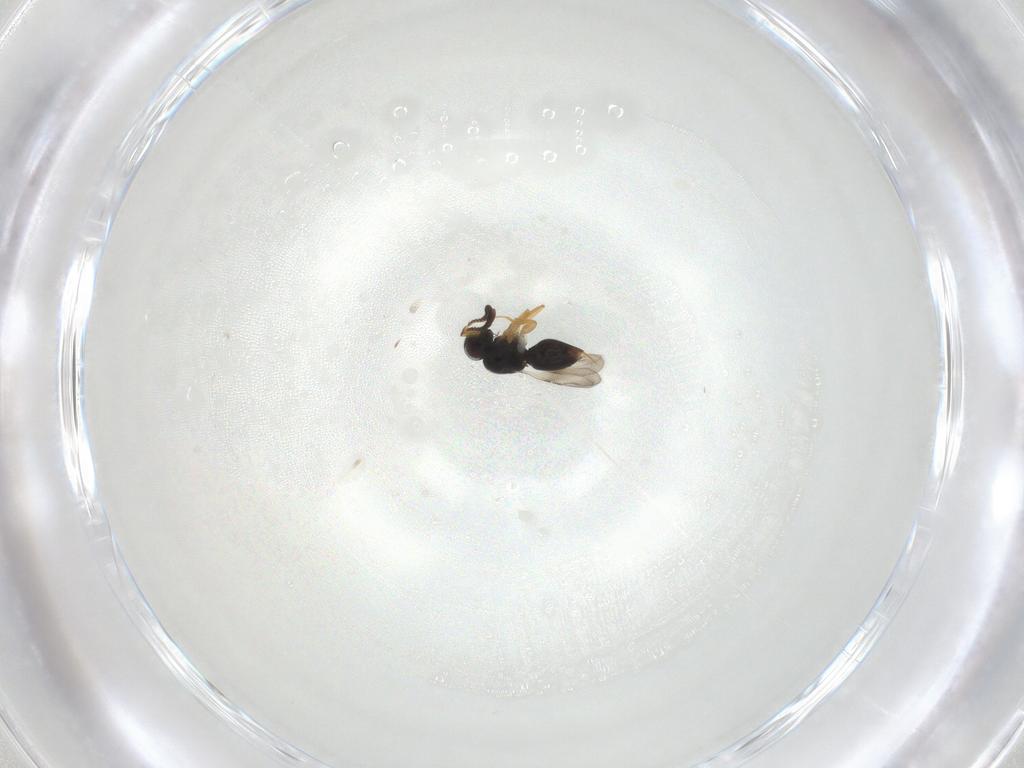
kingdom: Animalia
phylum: Arthropoda
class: Insecta
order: Hymenoptera
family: Ceraphronidae
